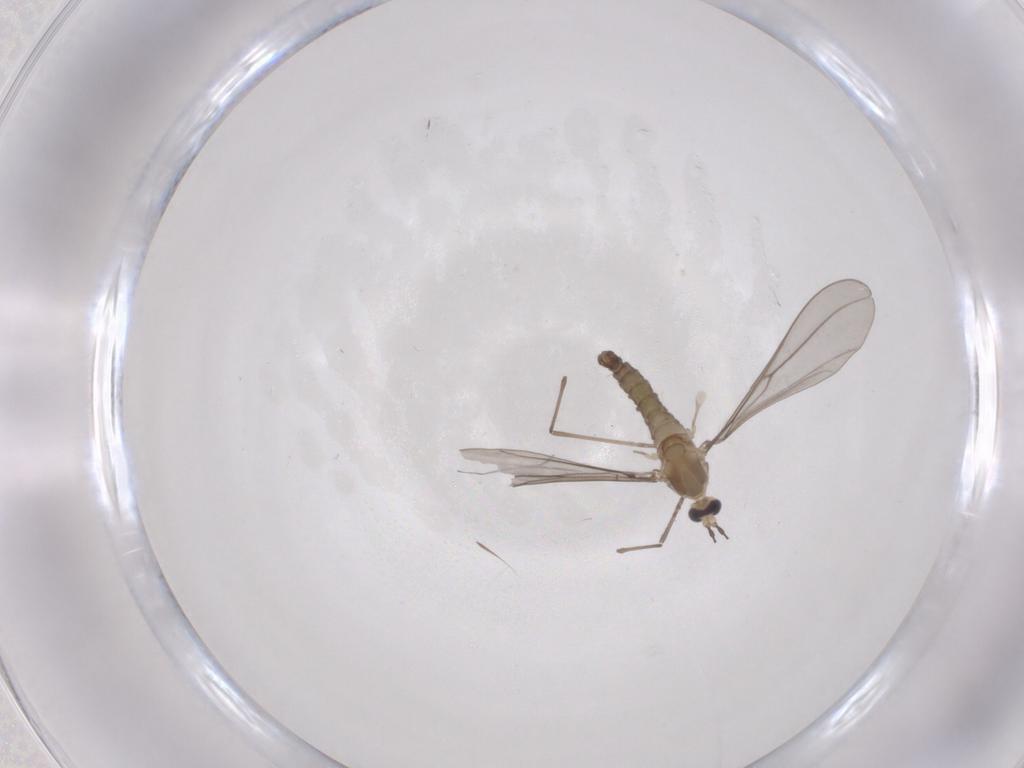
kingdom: Animalia
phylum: Arthropoda
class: Insecta
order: Diptera
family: Cecidomyiidae
